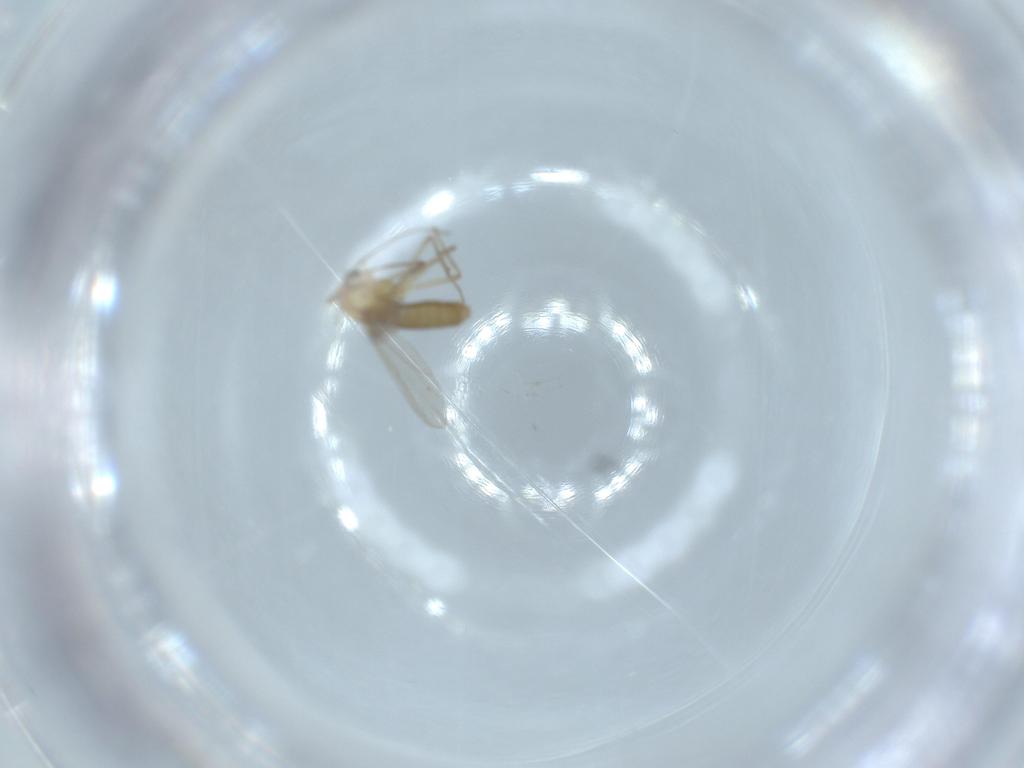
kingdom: Animalia
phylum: Arthropoda
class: Insecta
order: Diptera
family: Chironomidae
